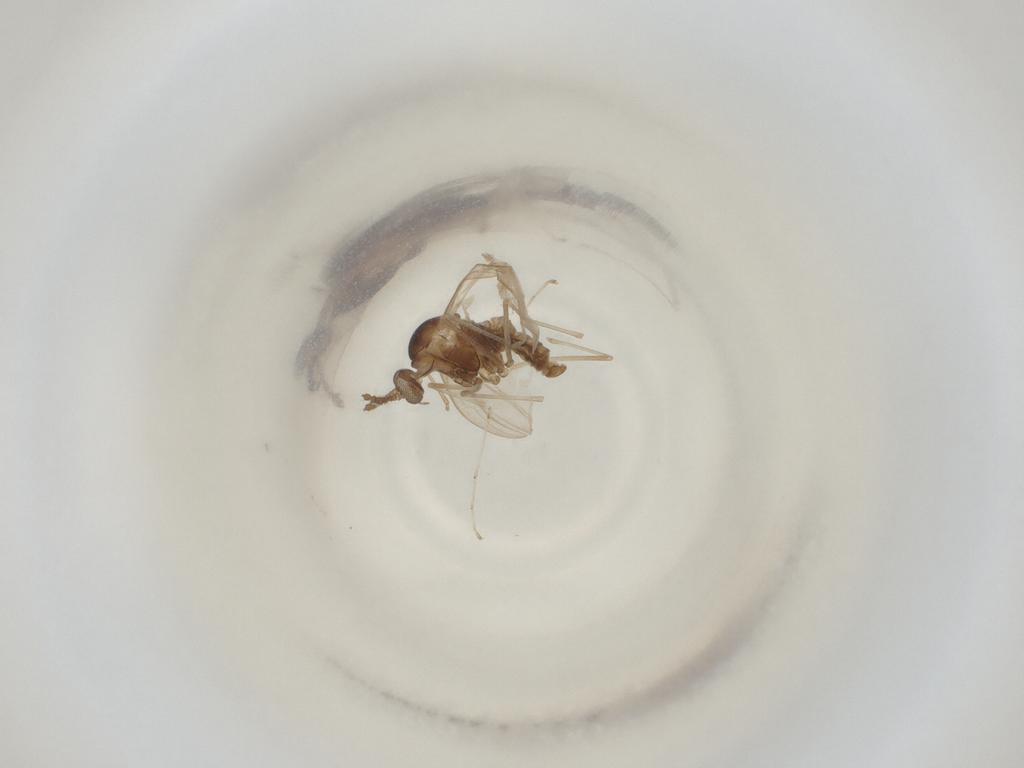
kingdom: Animalia
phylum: Arthropoda
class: Insecta
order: Diptera
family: Cecidomyiidae
